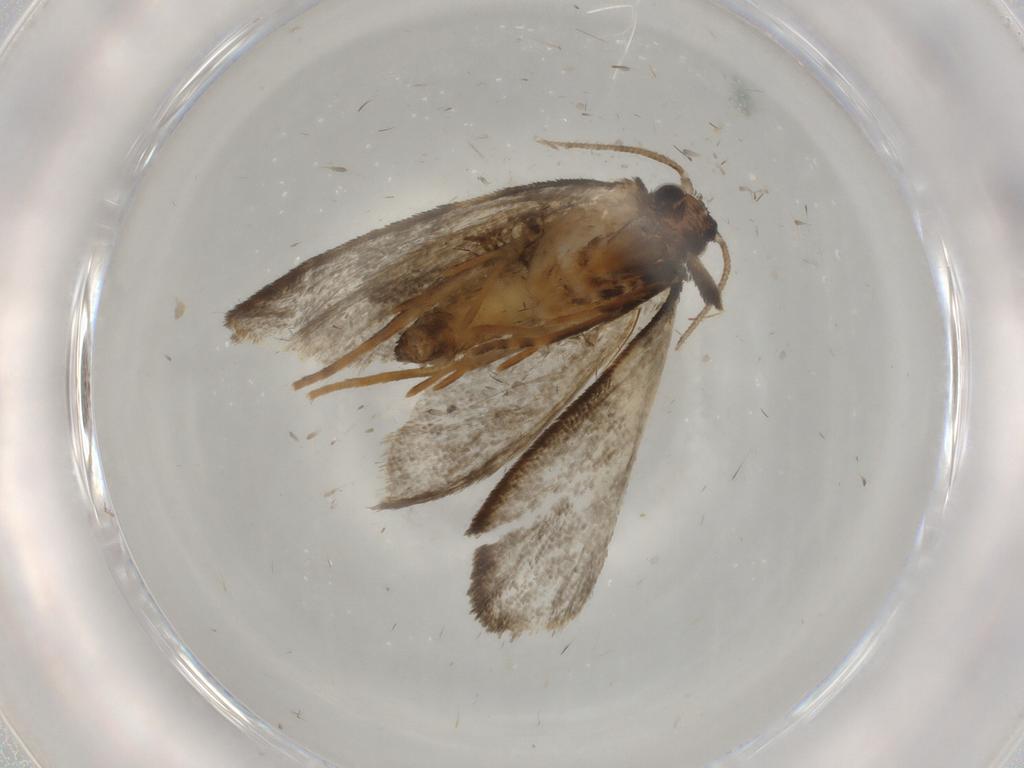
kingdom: Animalia
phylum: Arthropoda
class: Insecta
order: Lepidoptera
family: Psychidae
